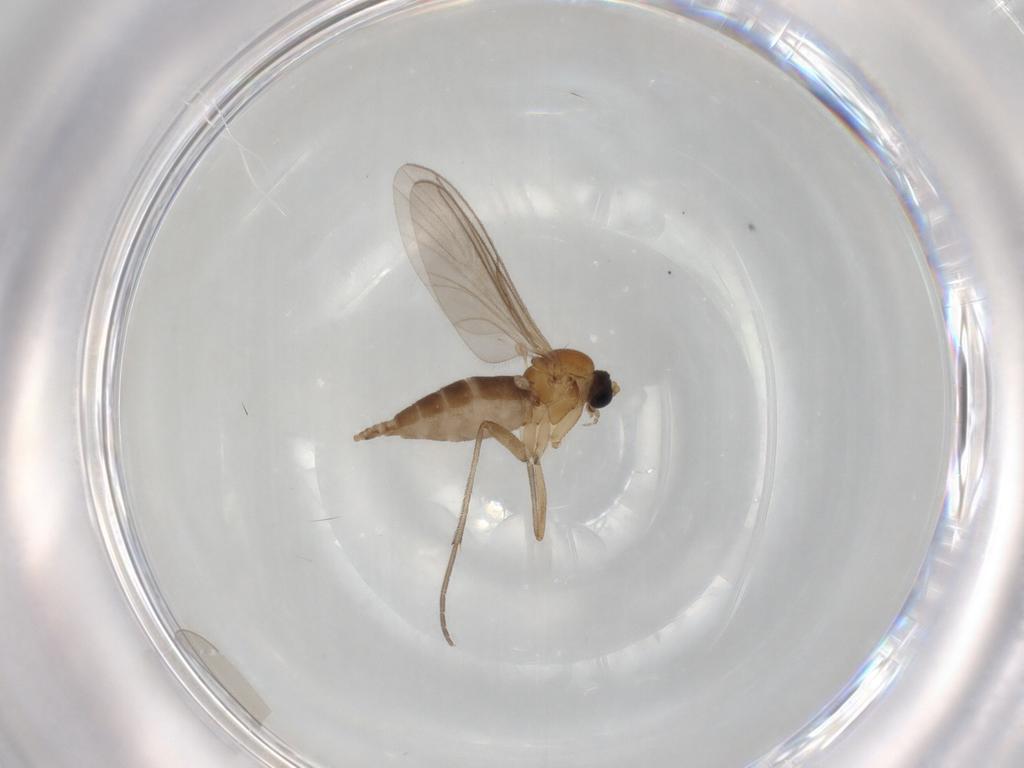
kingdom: Animalia
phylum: Arthropoda
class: Insecta
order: Diptera
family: Sciaridae
